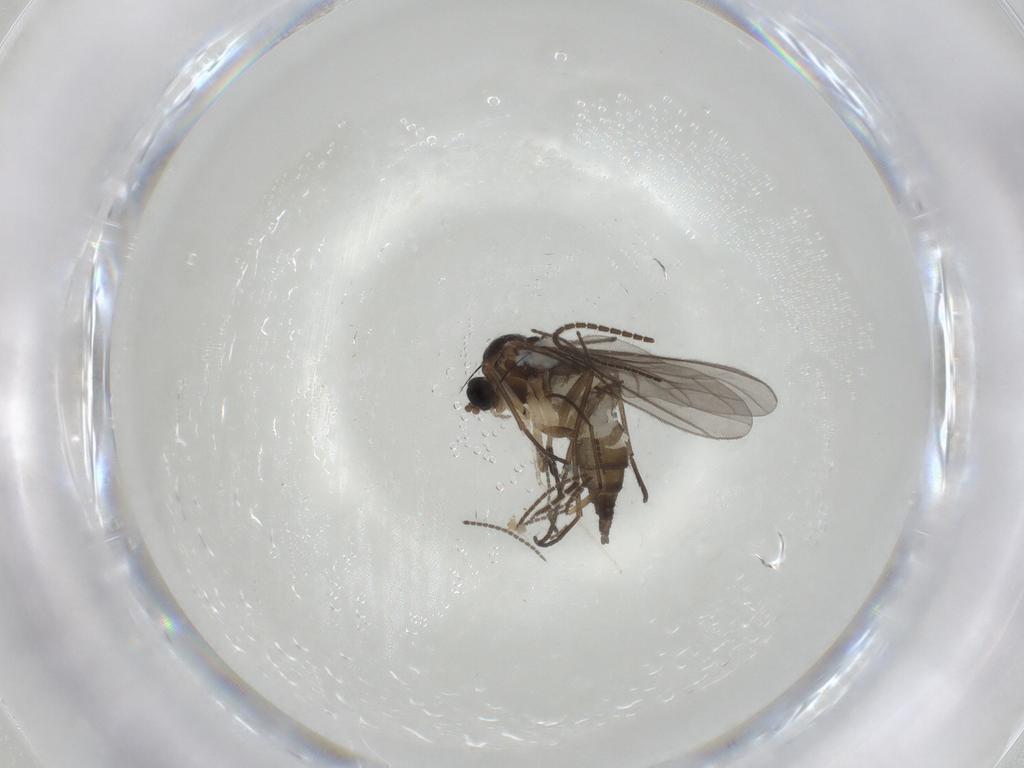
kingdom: Animalia
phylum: Arthropoda
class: Insecta
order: Diptera
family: Sciaridae
